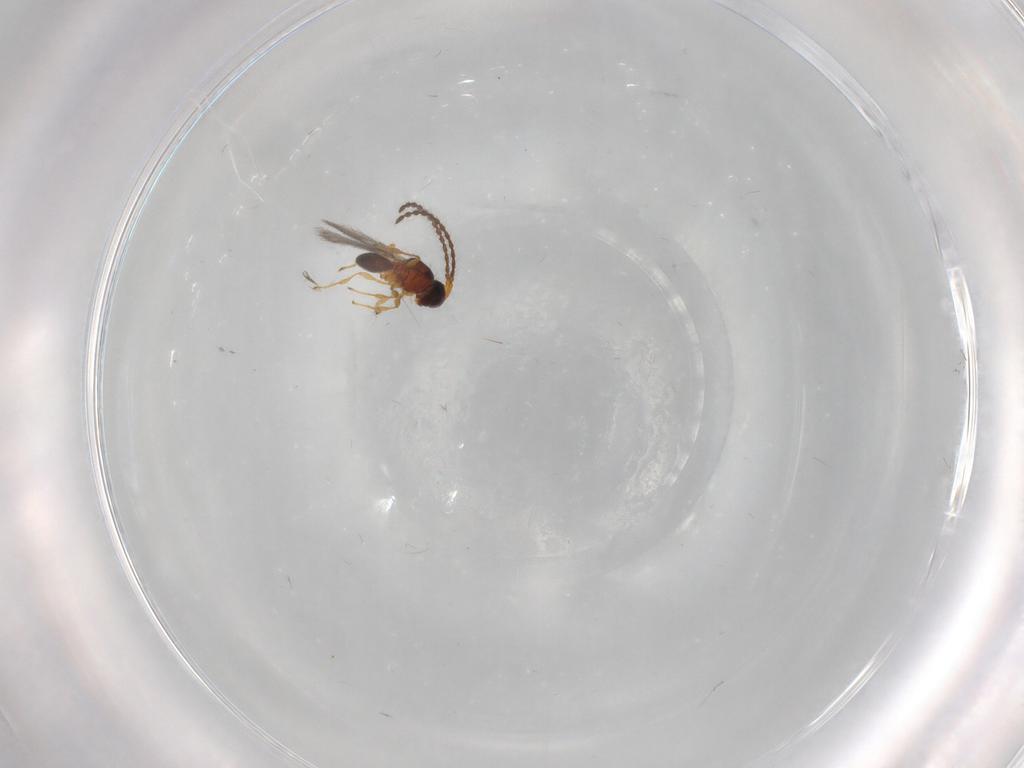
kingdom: Animalia
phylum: Arthropoda
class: Insecta
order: Hymenoptera
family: Diapriidae
